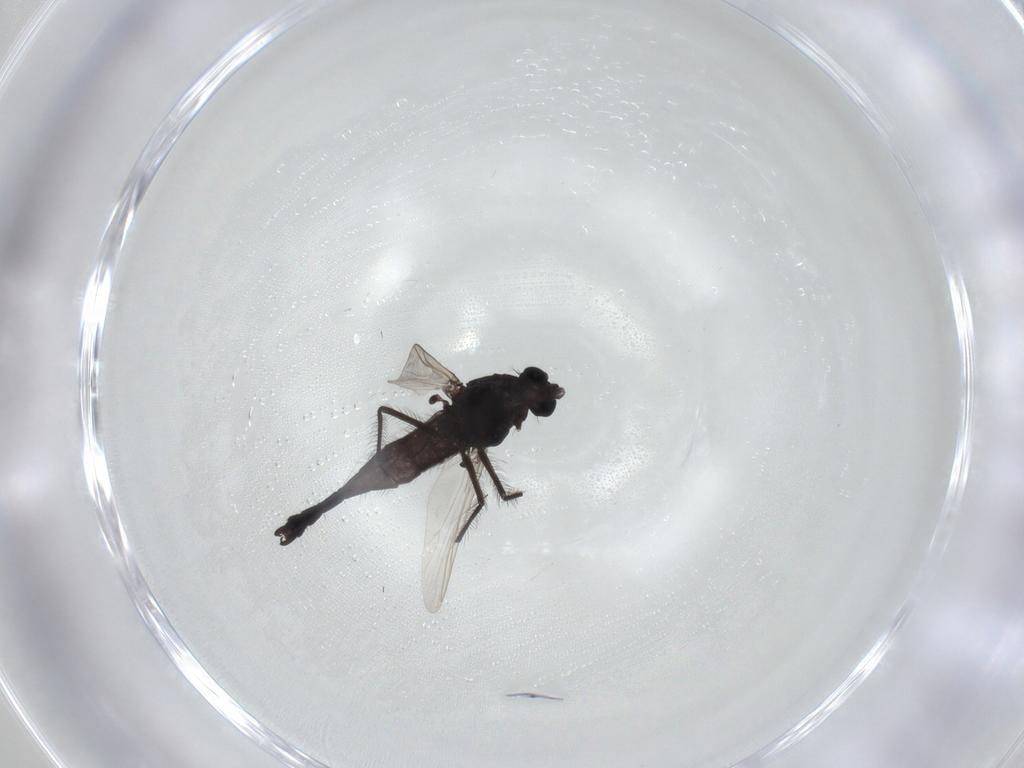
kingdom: Animalia
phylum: Arthropoda
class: Insecta
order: Diptera
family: Chironomidae
